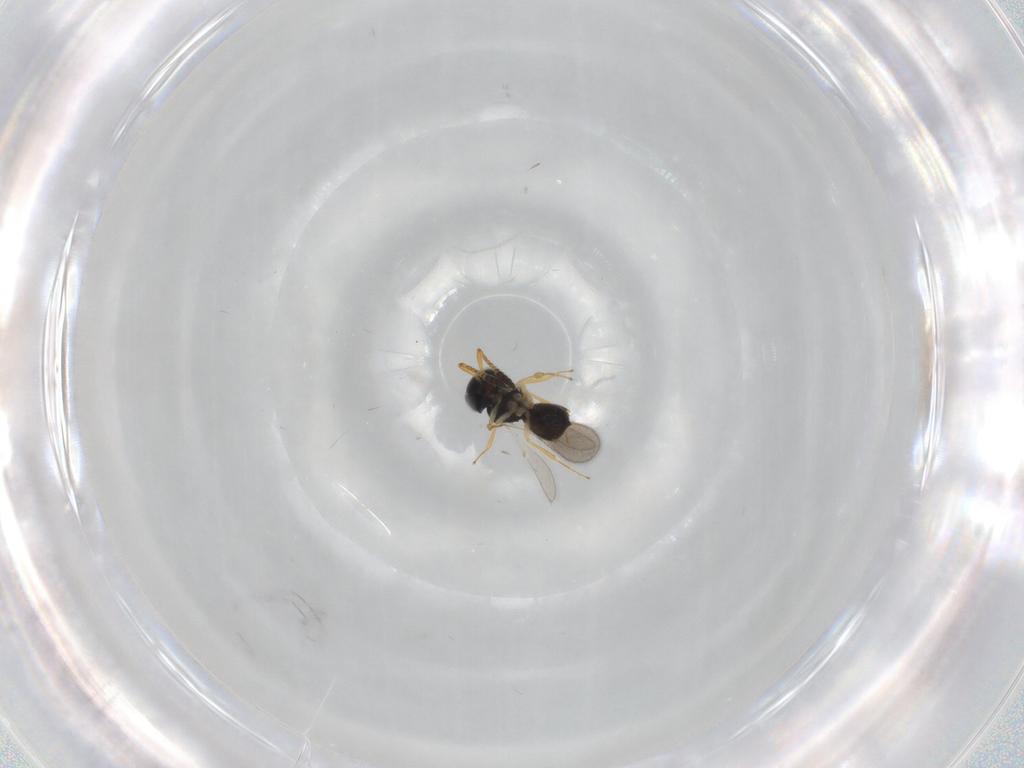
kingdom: Animalia
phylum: Arthropoda
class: Insecta
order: Hymenoptera
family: Scelionidae
